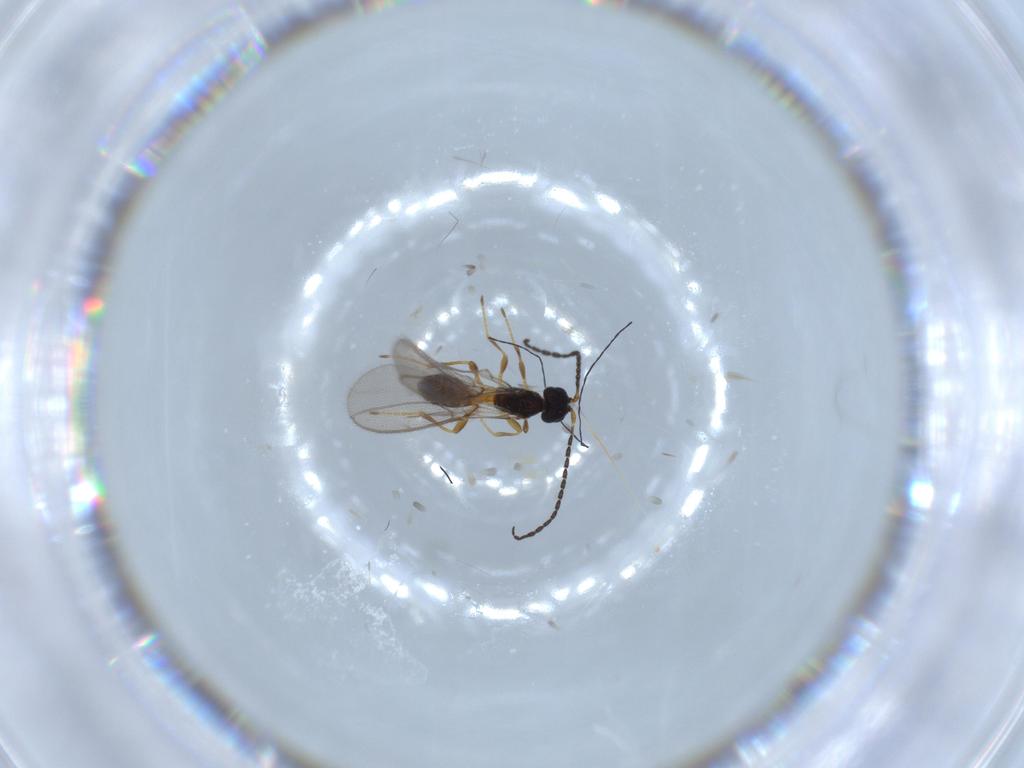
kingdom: Animalia
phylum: Arthropoda
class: Insecta
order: Hymenoptera
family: Braconidae
